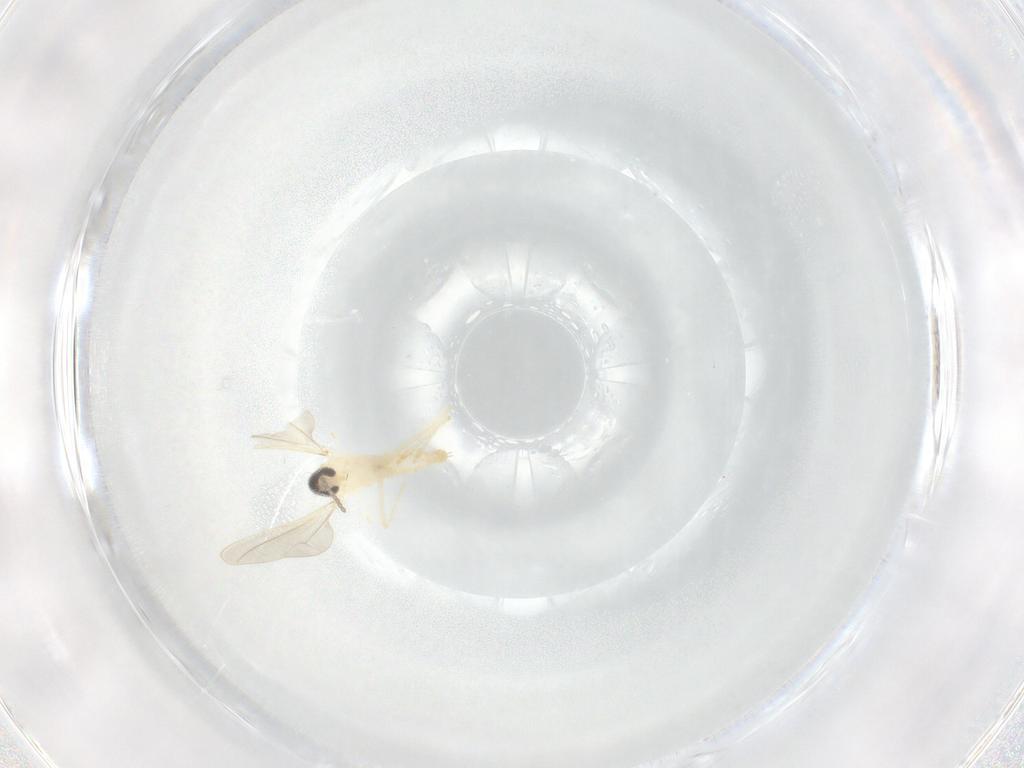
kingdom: Animalia
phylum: Arthropoda
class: Insecta
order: Diptera
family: Cecidomyiidae
